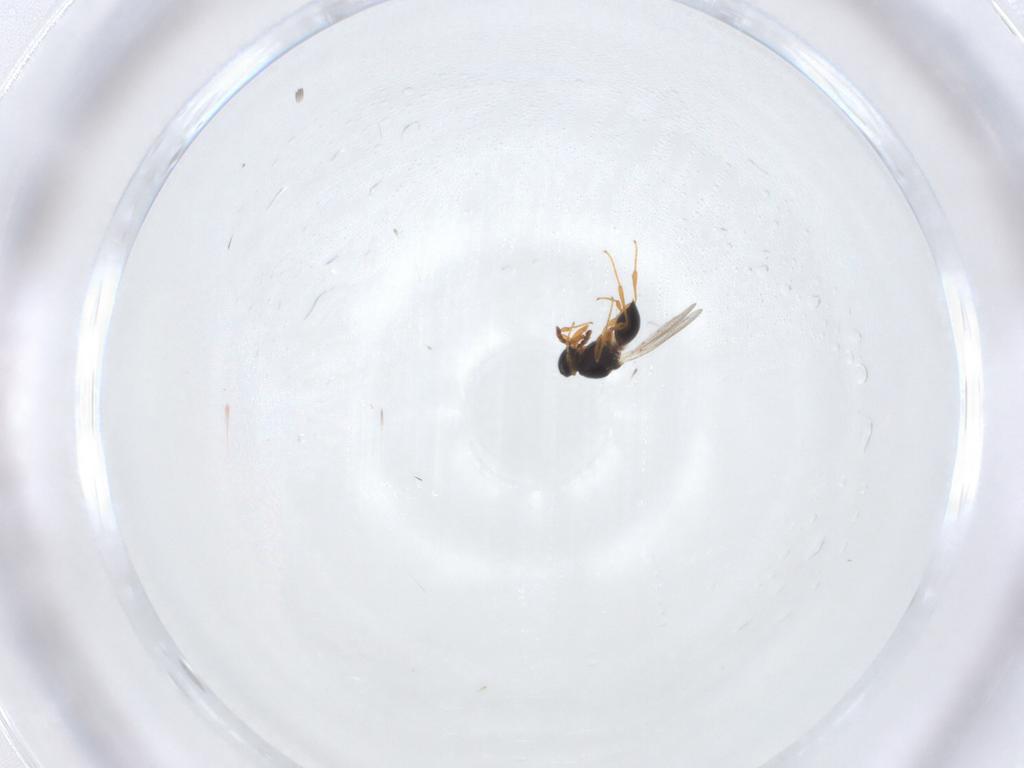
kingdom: Animalia
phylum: Arthropoda
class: Insecta
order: Hymenoptera
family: Platygastridae
